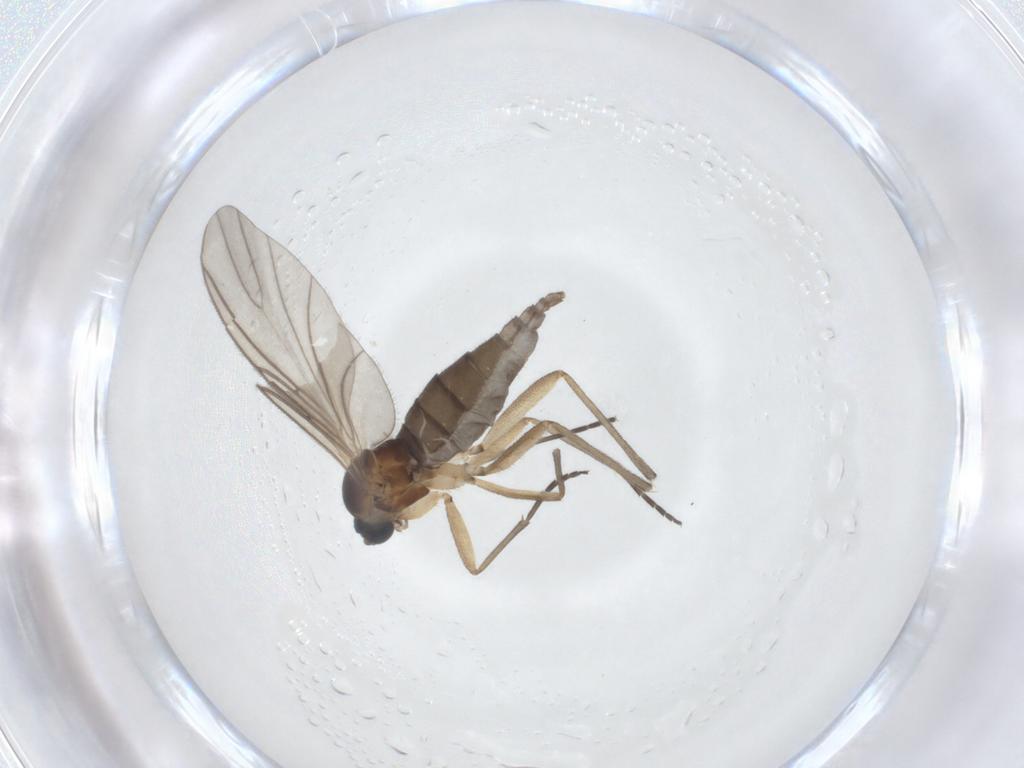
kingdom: Animalia
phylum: Arthropoda
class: Insecta
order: Diptera
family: Sciaridae
